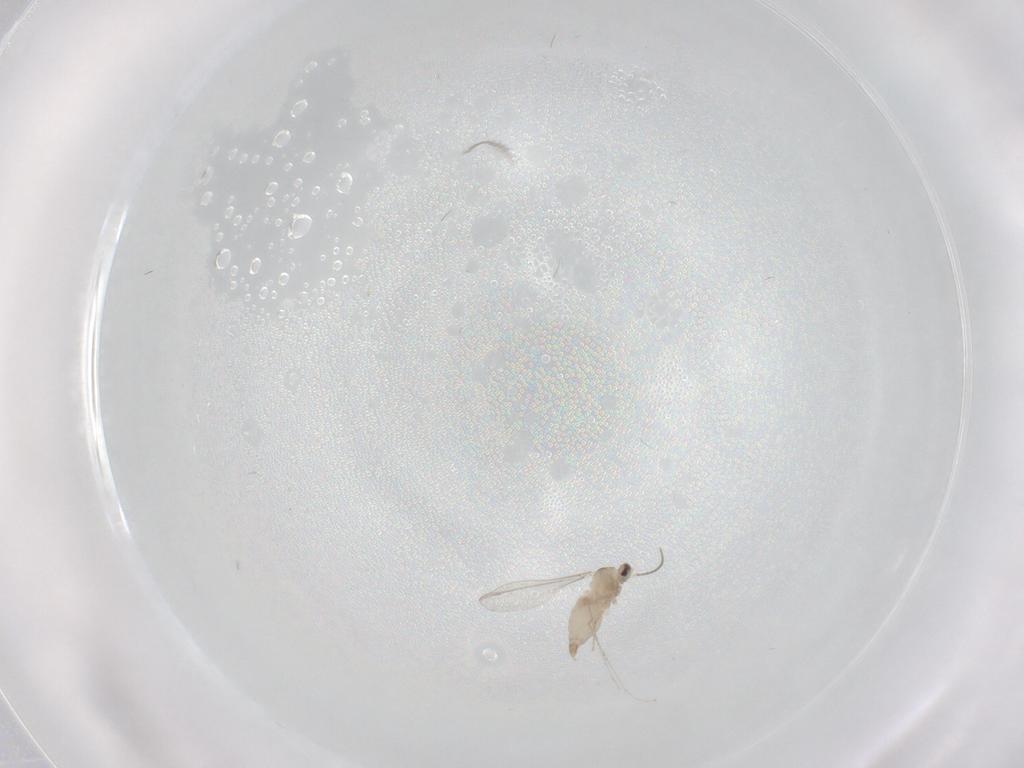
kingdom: Animalia
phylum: Arthropoda
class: Insecta
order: Diptera
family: Cecidomyiidae
